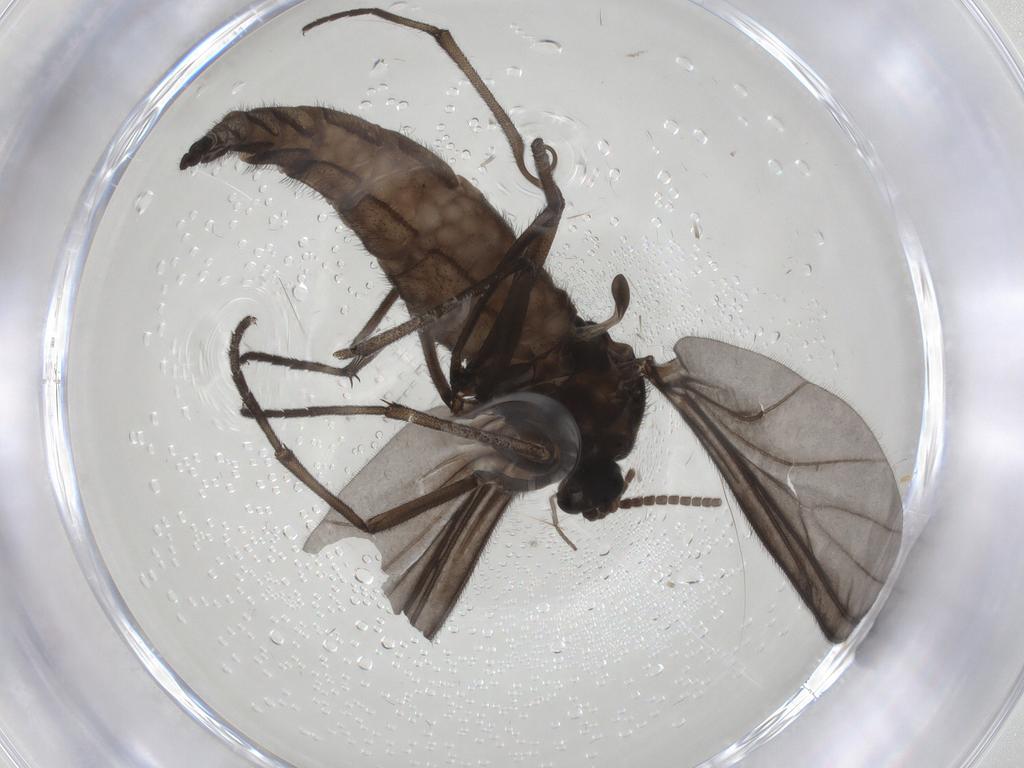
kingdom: Animalia
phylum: Arthropoda
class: Insecta
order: Diptera
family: Sciaridae
